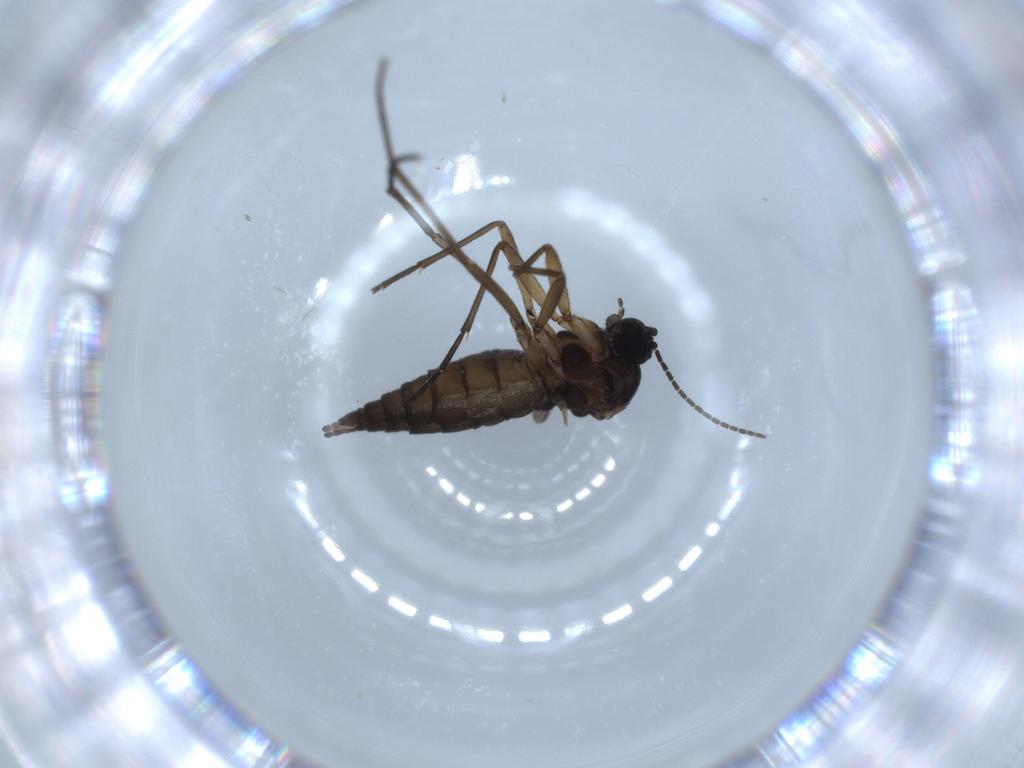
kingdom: Animalia
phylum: Arthropoda
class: Insecta
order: Diptera
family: Sciaridae
